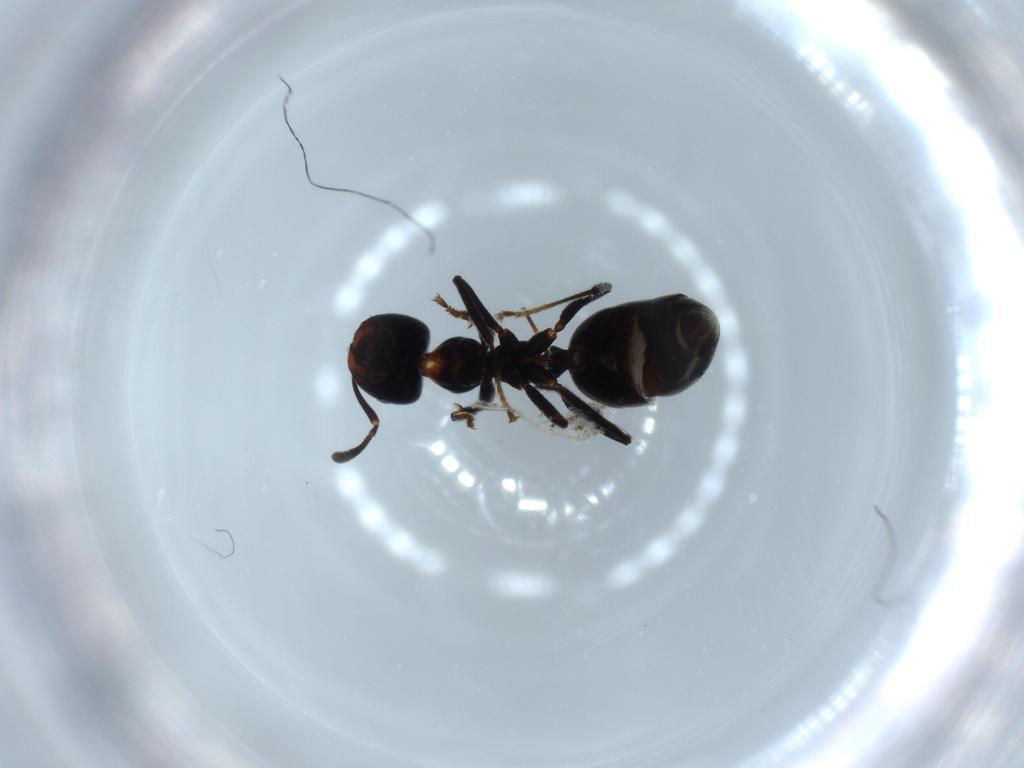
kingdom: Animalia
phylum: Arthropoda
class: Insecta
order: Hymenoptera
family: Formicidae
